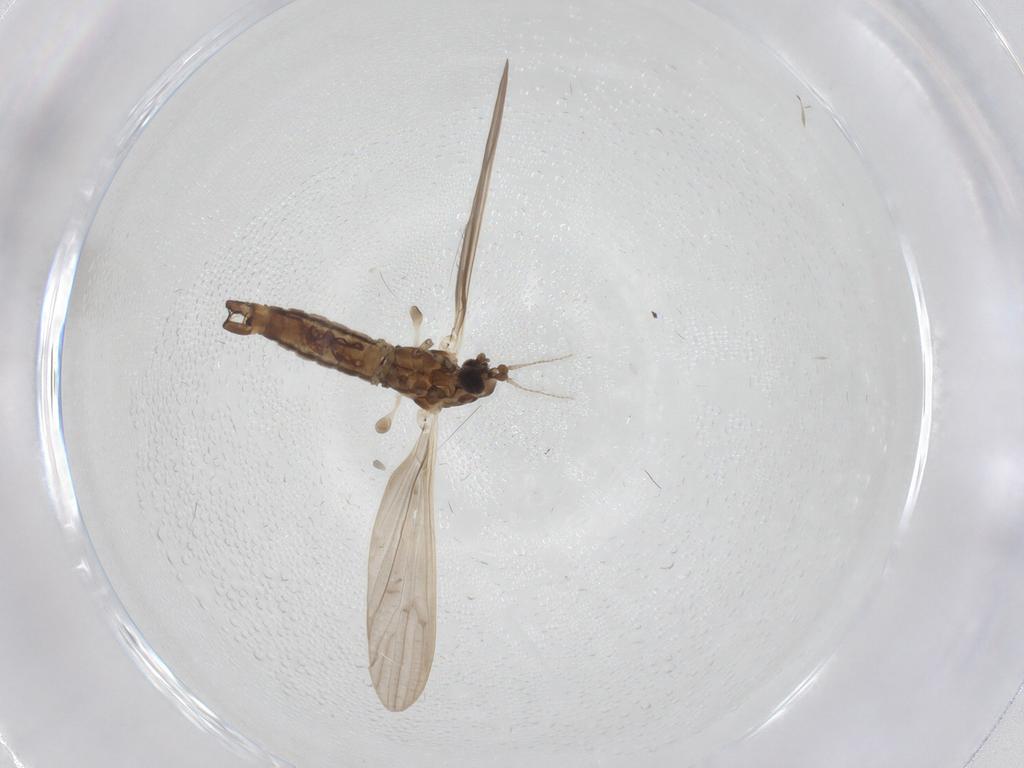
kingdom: Animalia
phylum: Arthropoda
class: Insecta
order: Diptera
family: Limoniidae
